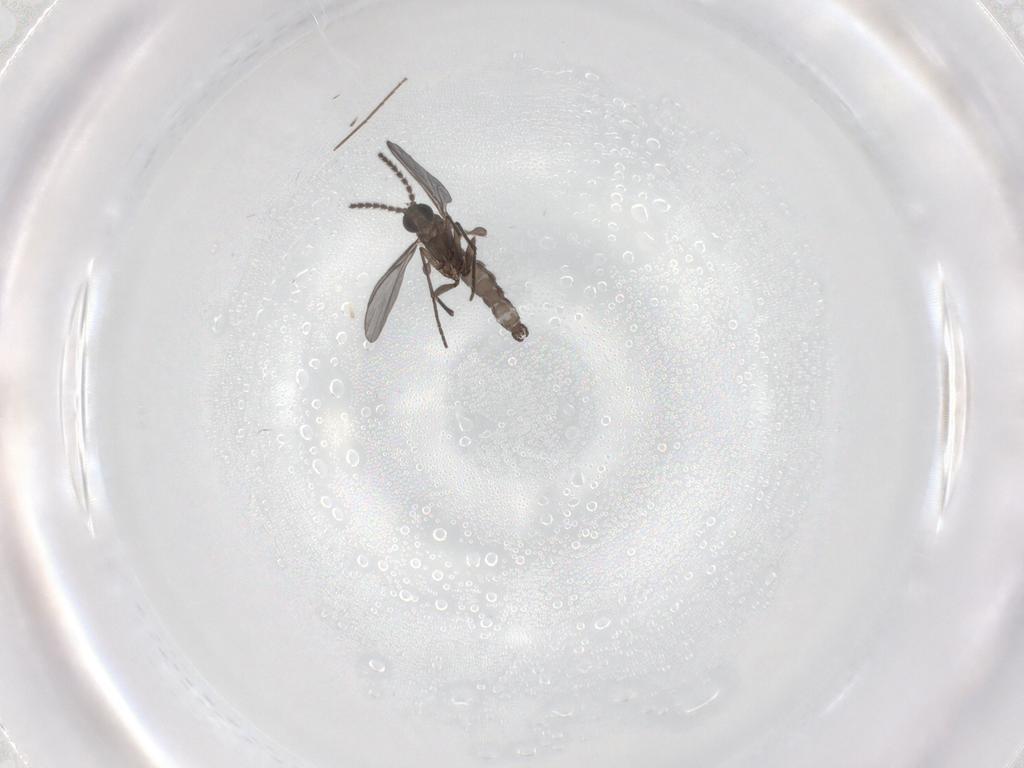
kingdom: Animalia
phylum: Arthropoda
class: Insecta
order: Diptera
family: Chironomidae
